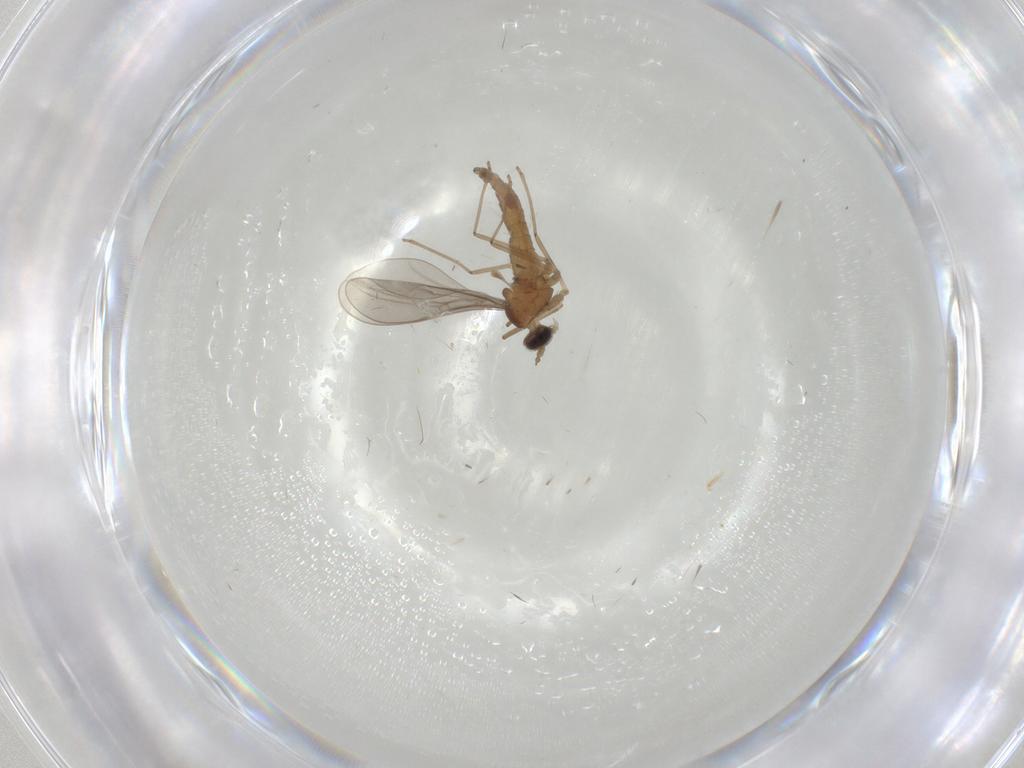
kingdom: Animalia
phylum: Arthropoda
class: Insecta
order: Diptera
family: Cecidomyiidae
